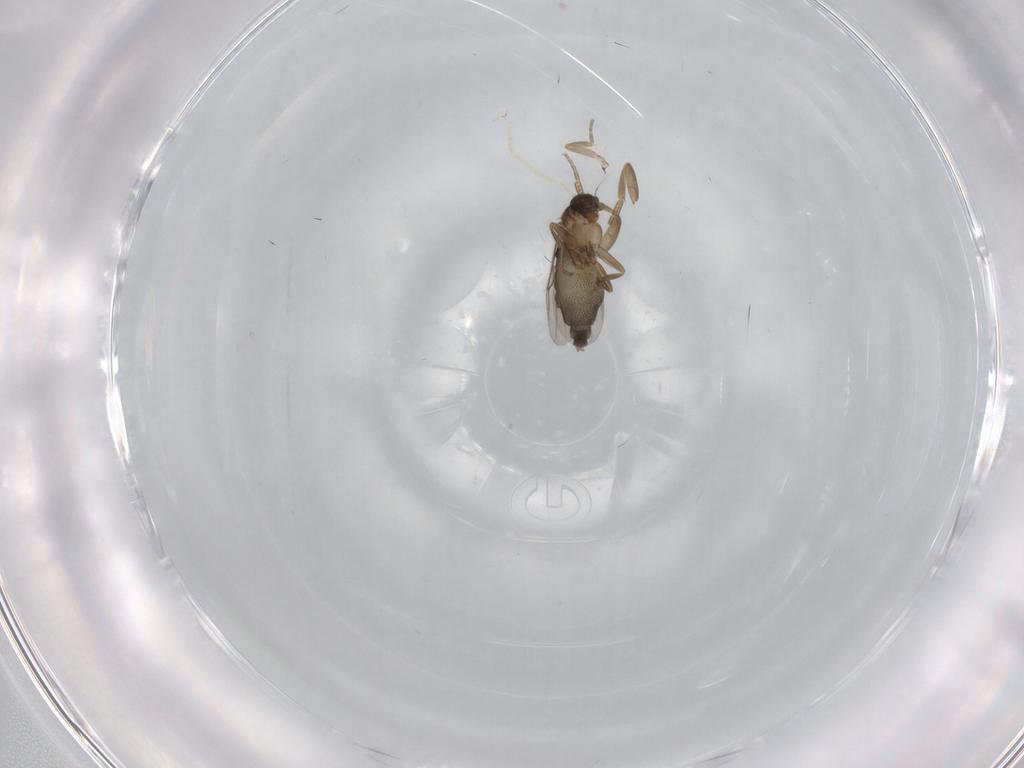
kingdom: Animalia
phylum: Arthropoda
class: Insecta
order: Diptera
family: Phoridae
